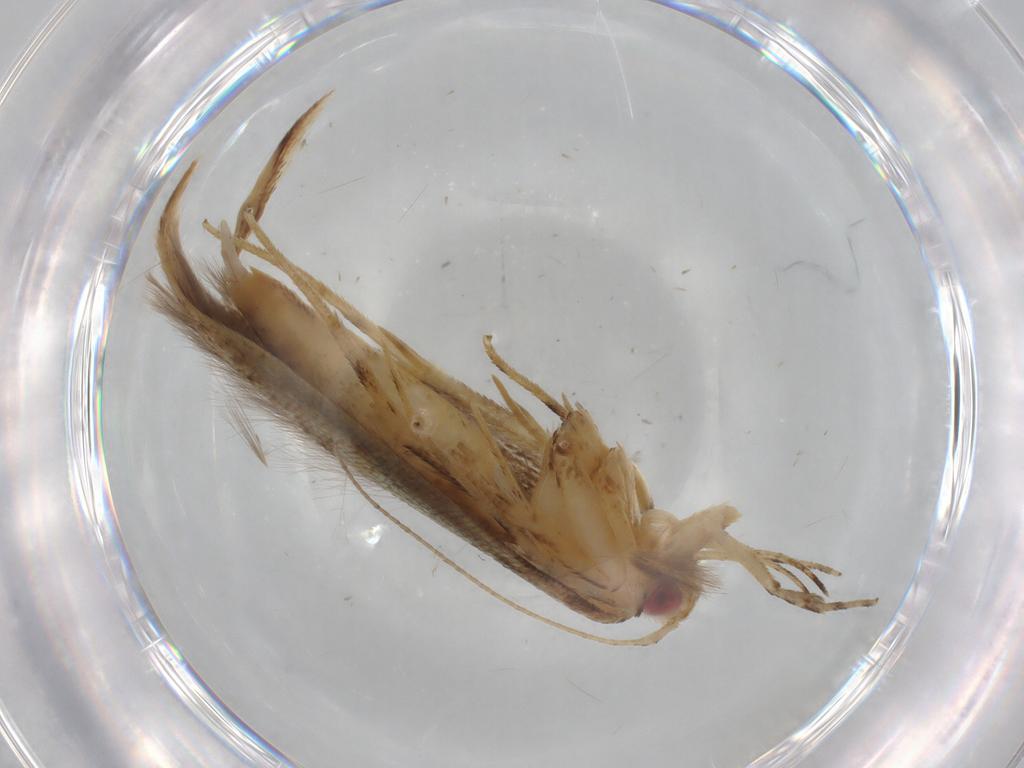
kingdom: Animalia
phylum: Arthropoda
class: Insecta
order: Lepidoptera
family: Cosmopterigidae
